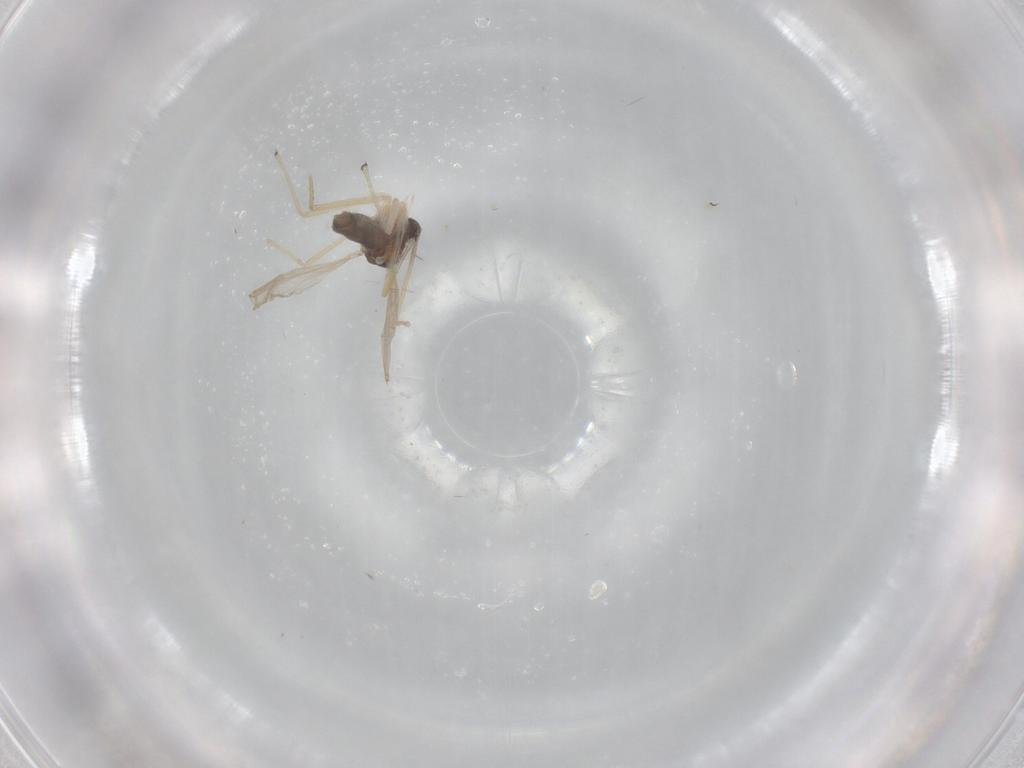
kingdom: Animalia
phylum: Arthropoda
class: Insecta
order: Diptera
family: Chironomidae
